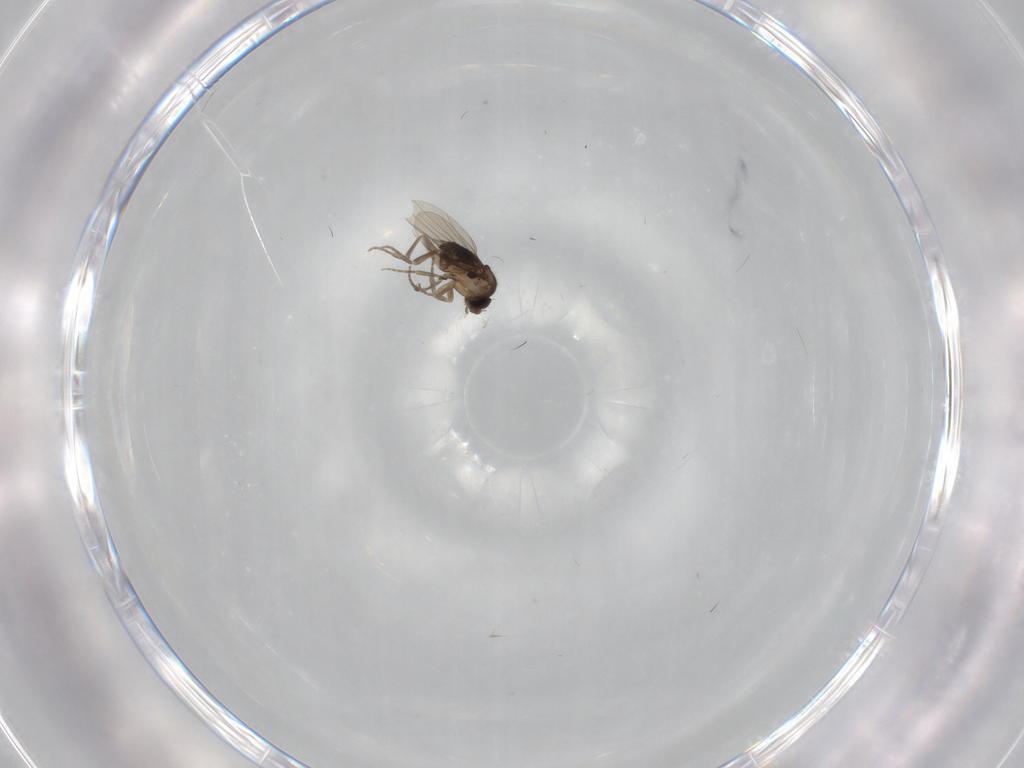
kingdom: Animalia
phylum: Arthropoda
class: Insecta
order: Diptera
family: Phoridae
